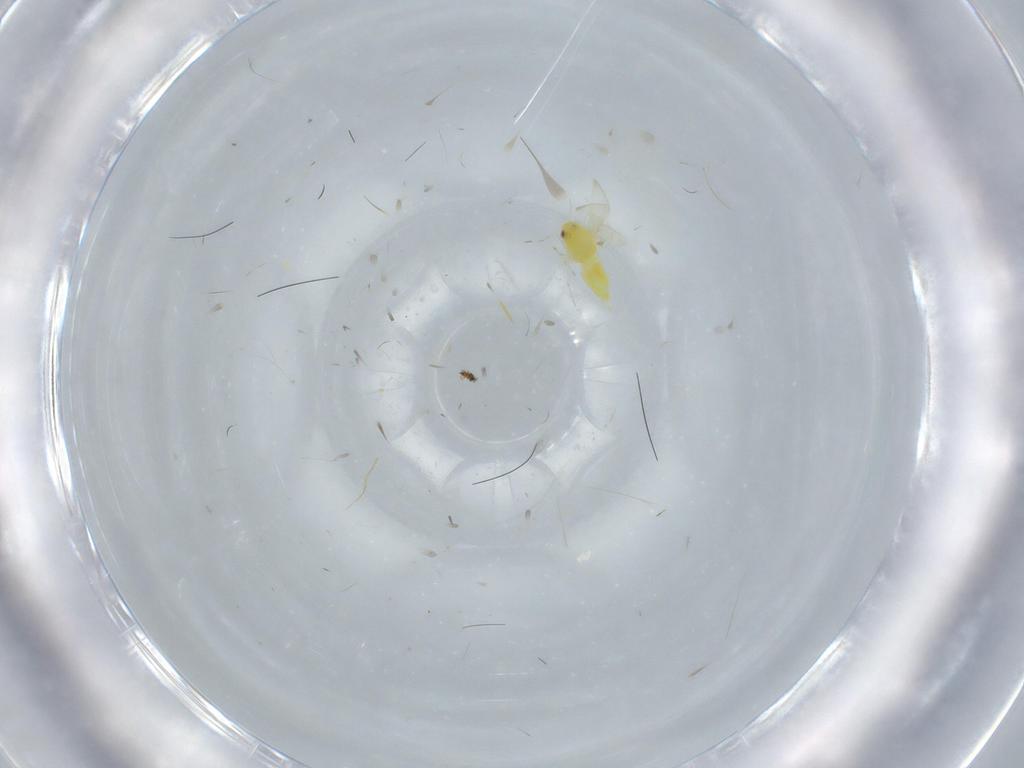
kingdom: Animalia
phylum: Arthropoda
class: Insecta
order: Hemiptera
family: Aleyrodidae
